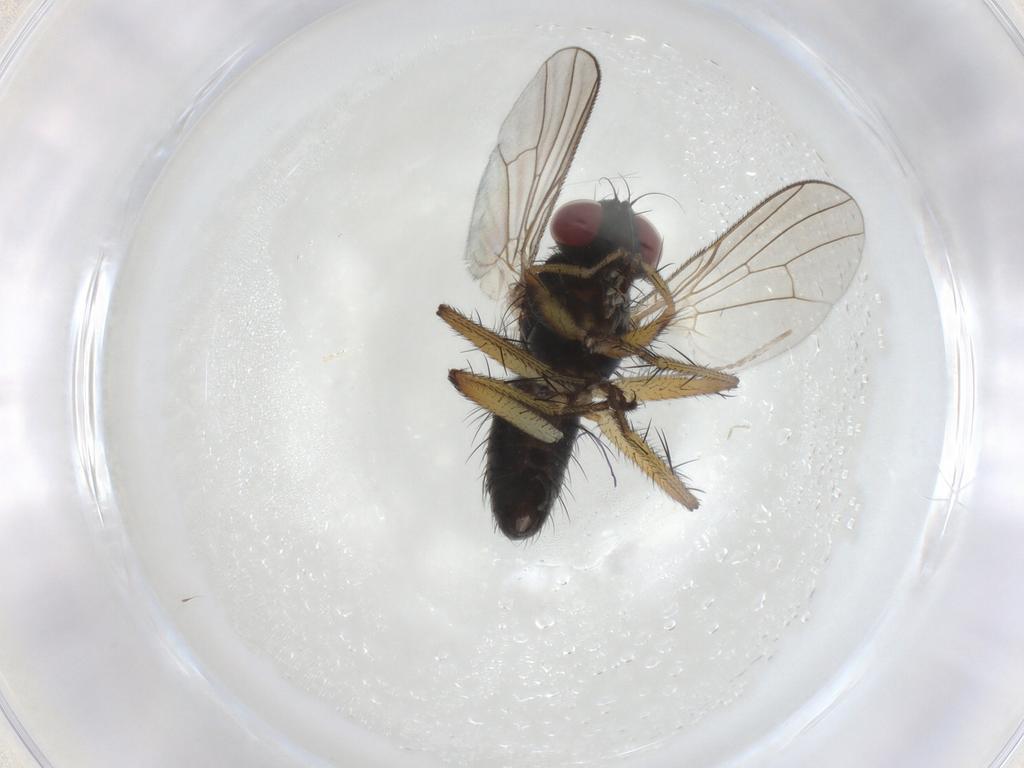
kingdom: Animalia
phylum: Arthropoda
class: Insecta
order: Diptera
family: Muscidae
